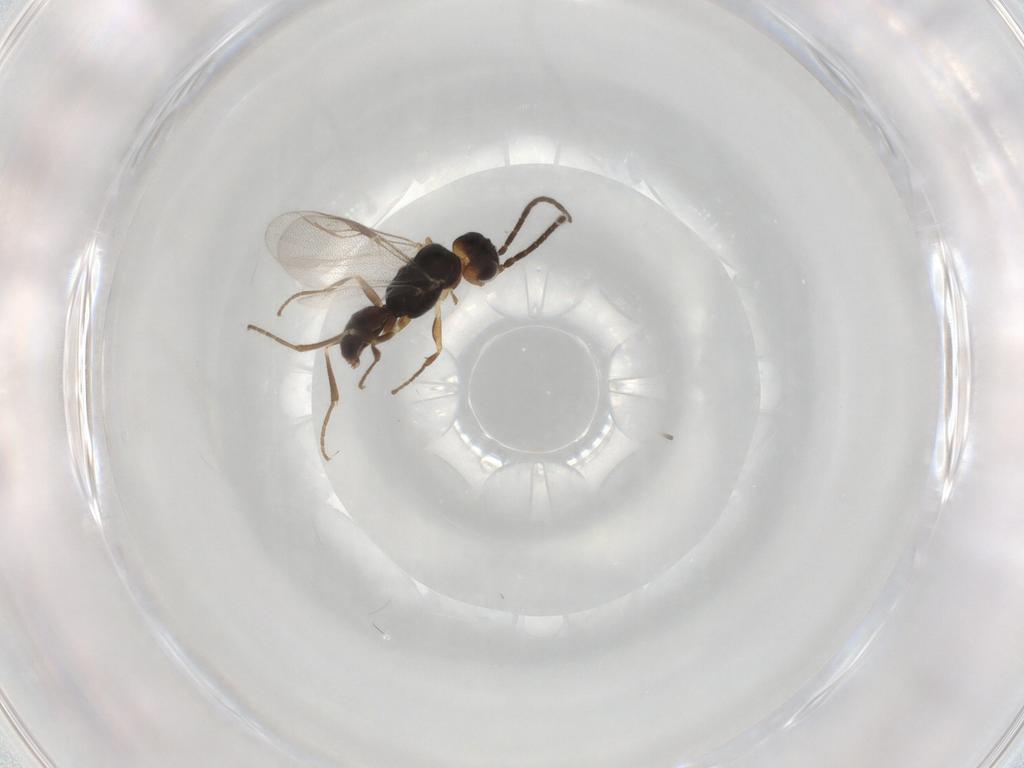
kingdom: Animalia
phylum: Arthropoda
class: Insecta
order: Hymenoptera
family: Dryinidae
